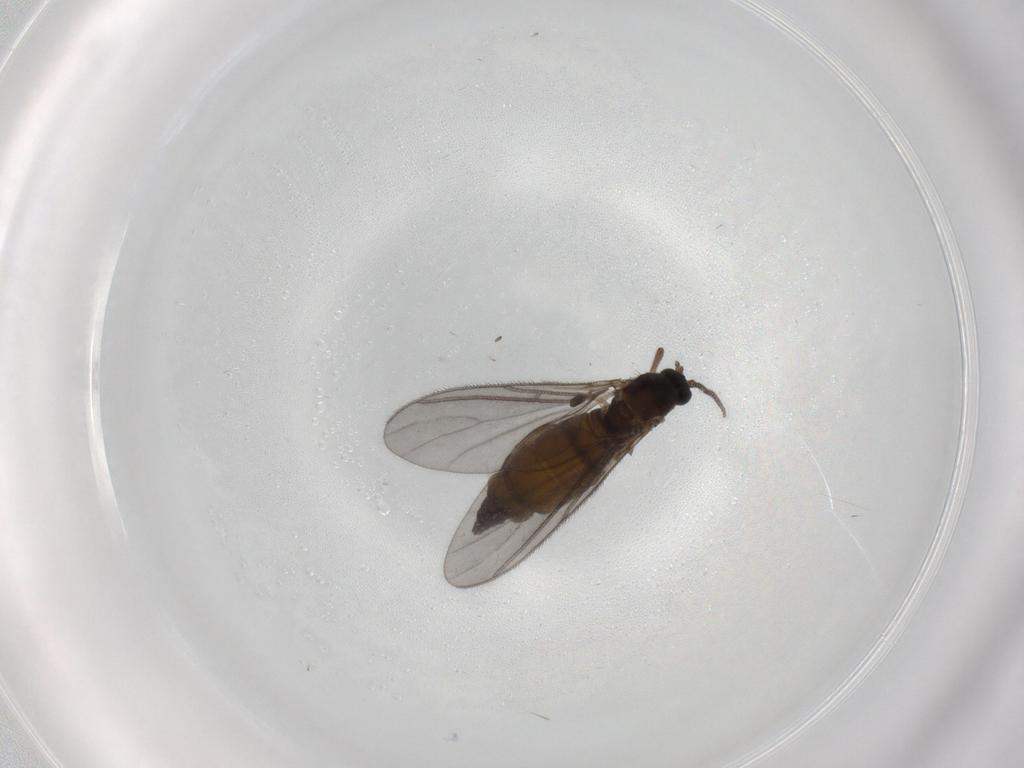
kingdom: Animalia
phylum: Arthropoda
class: Insecta
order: Diptera
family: Sciaridae
